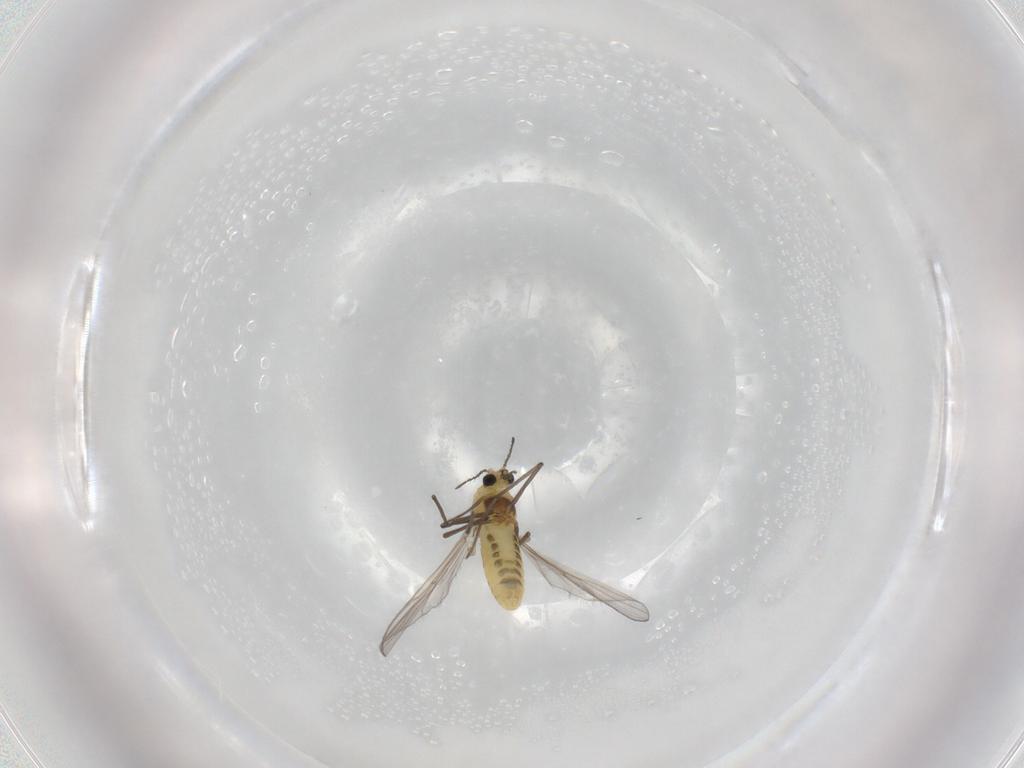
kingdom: Animalia
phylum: Arthropoda
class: Insecta
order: Diptera
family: Chironomidae
